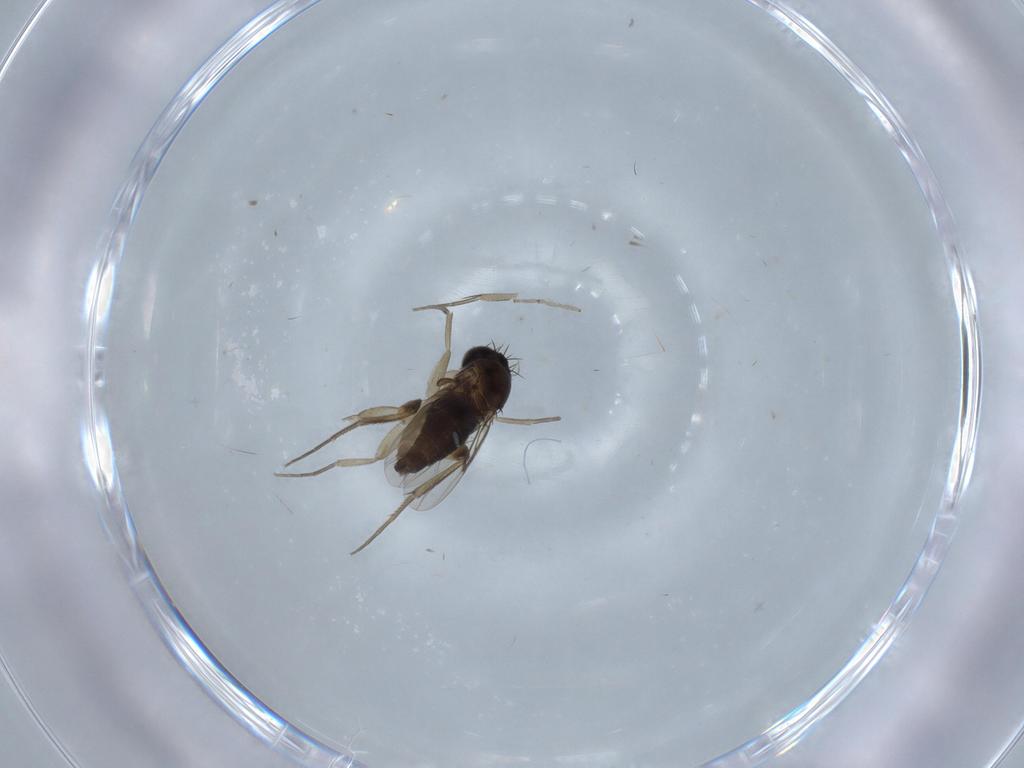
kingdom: Animalia
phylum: Arthropoda
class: Insecta
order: Diptera
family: Phoridae
